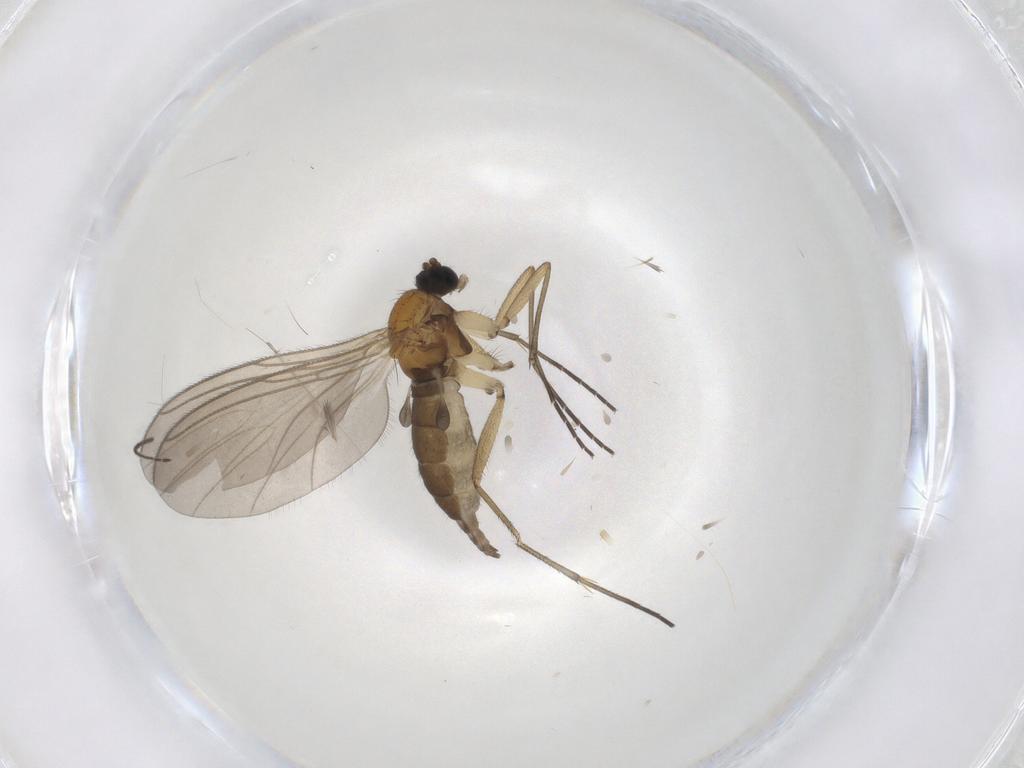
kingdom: Animalia
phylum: Arthropoda
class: Insecta
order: Diptera
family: Sciaridae
